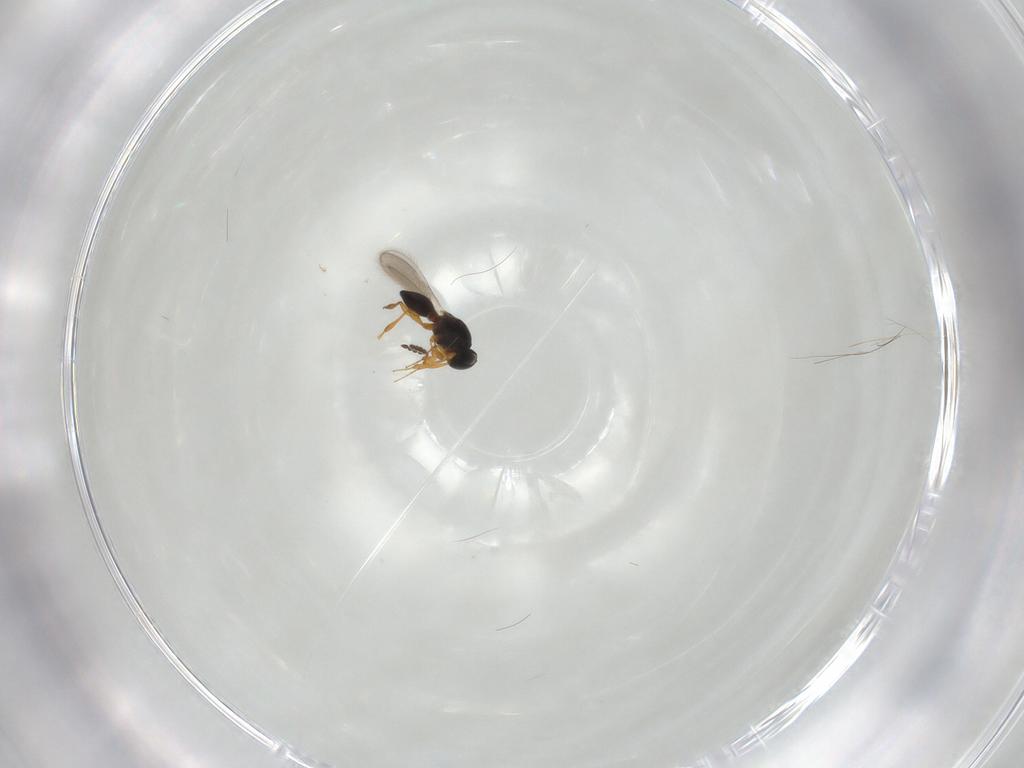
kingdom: Animalia
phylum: Arthropoda
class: Insecta
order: Hymenoptera
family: Platygastridae
